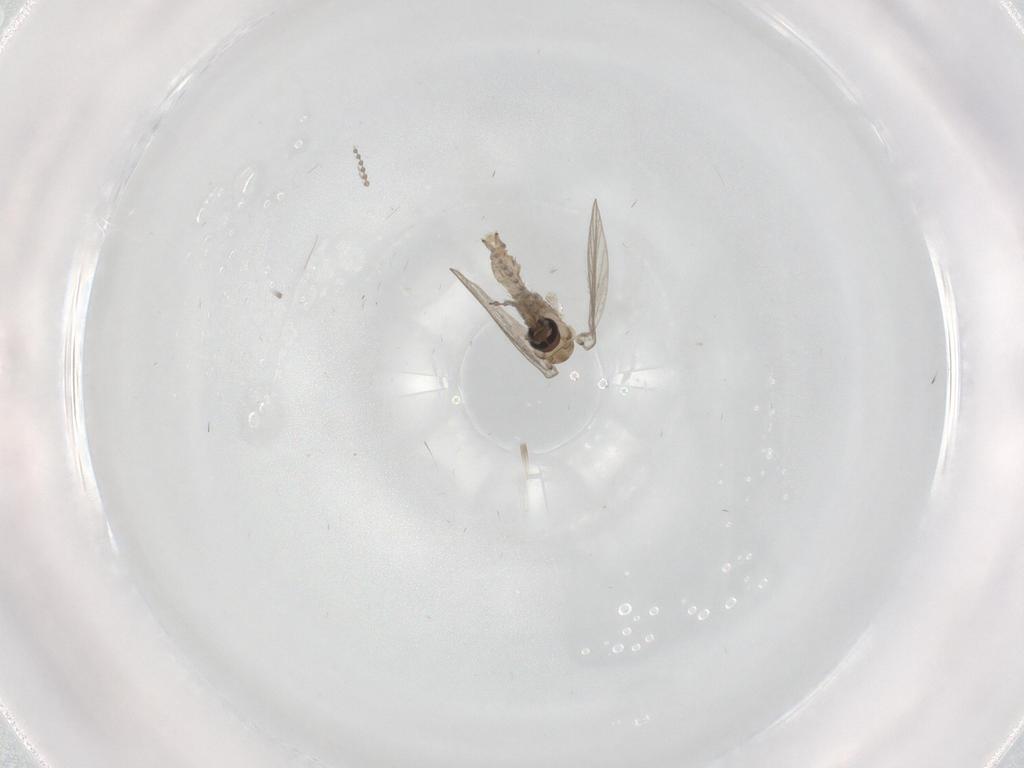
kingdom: Animalia
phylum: Arthropoda
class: Insecta
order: Diptera
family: Psychodidae
